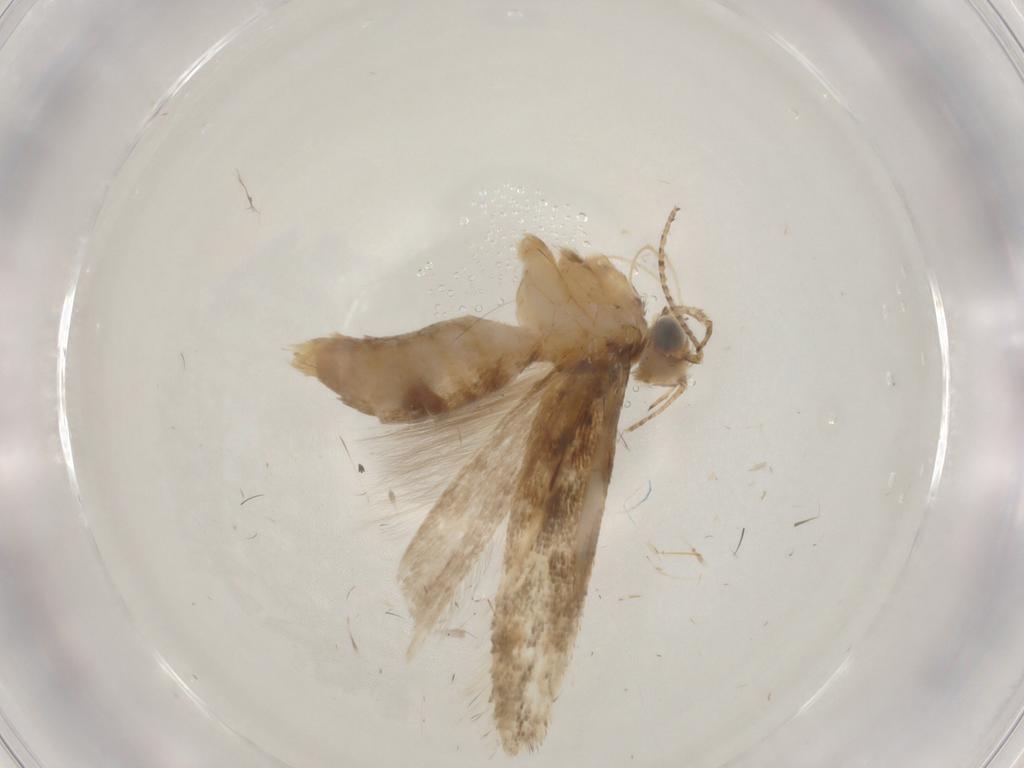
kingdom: Animalia
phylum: Arthropoda
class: Insecta
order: Lepidoptera
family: Gelechiidae
